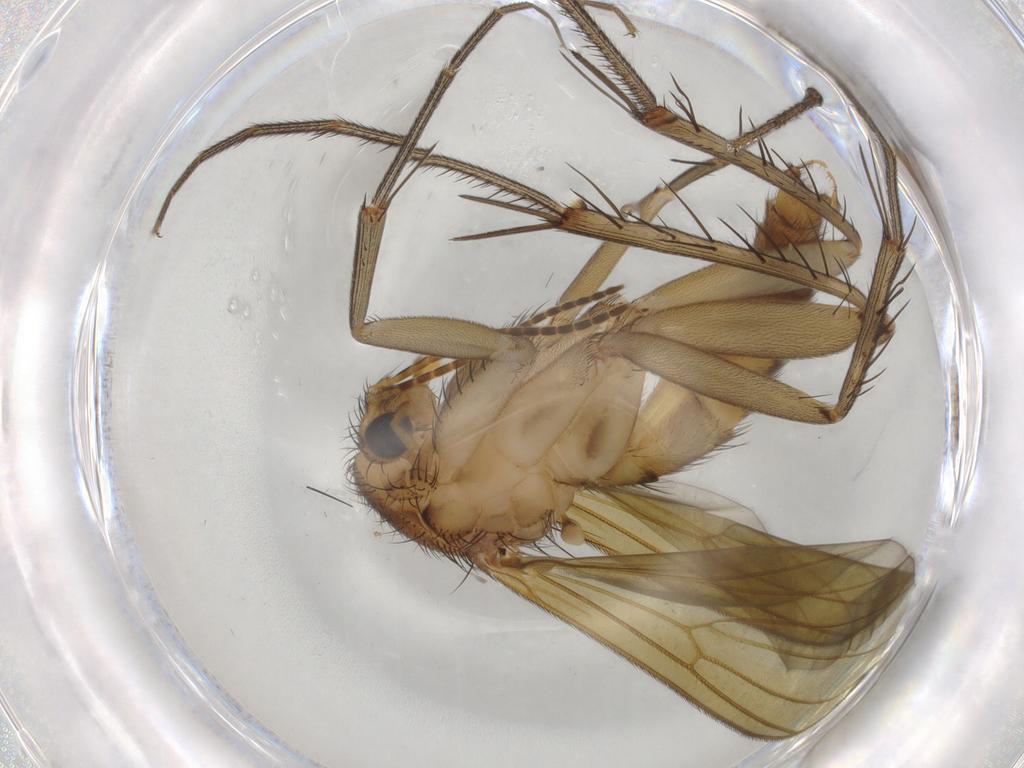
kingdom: Animalia
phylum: Arthropoda
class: Insecta
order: Diptera
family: Mycetophilidae
